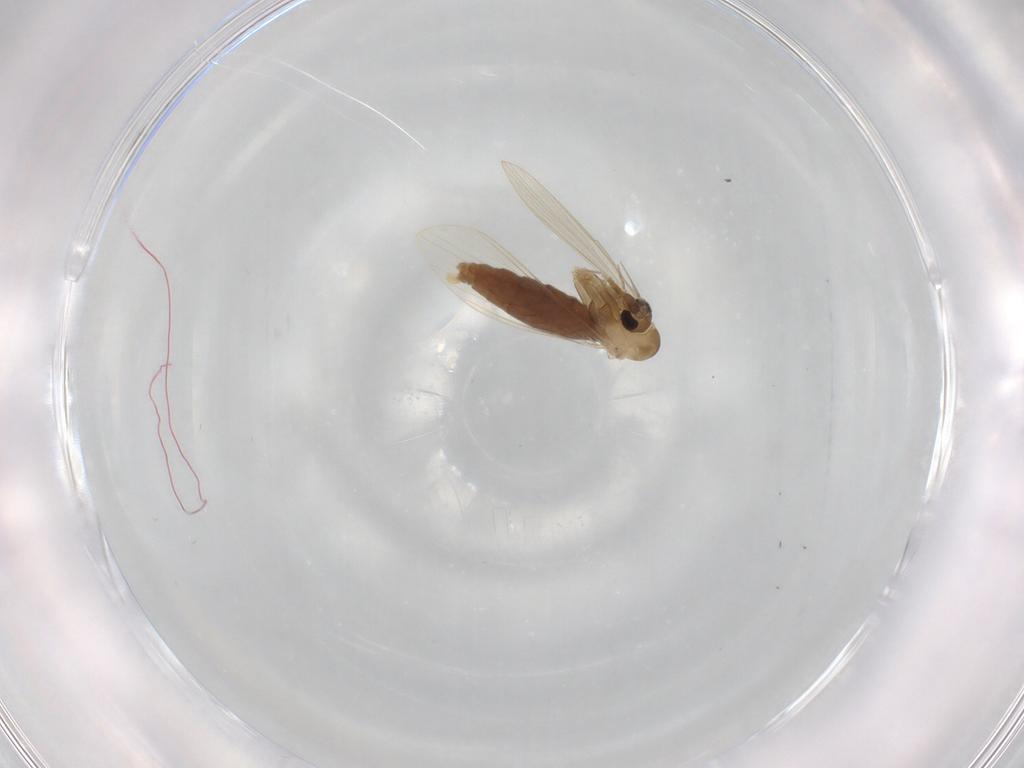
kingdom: Animalia
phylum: Arthropoda
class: Insecta
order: Diptera
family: Psychodidae
